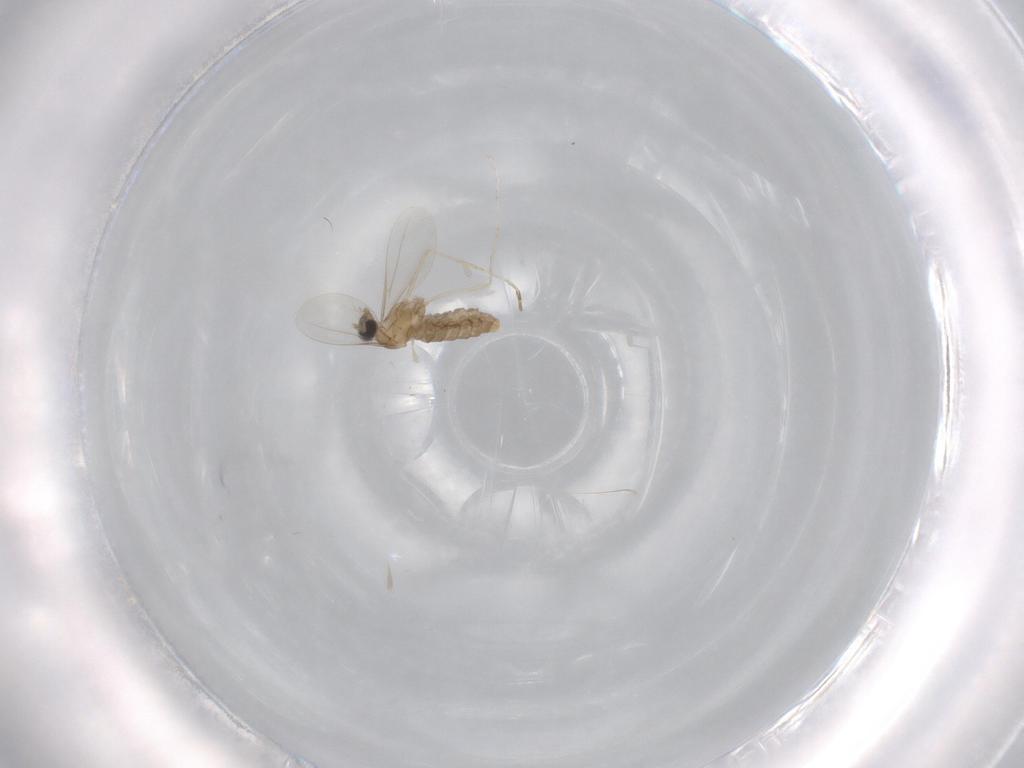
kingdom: Animalia
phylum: Arthropoda
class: Insecta
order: Diptera
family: Cecidomyiidae
